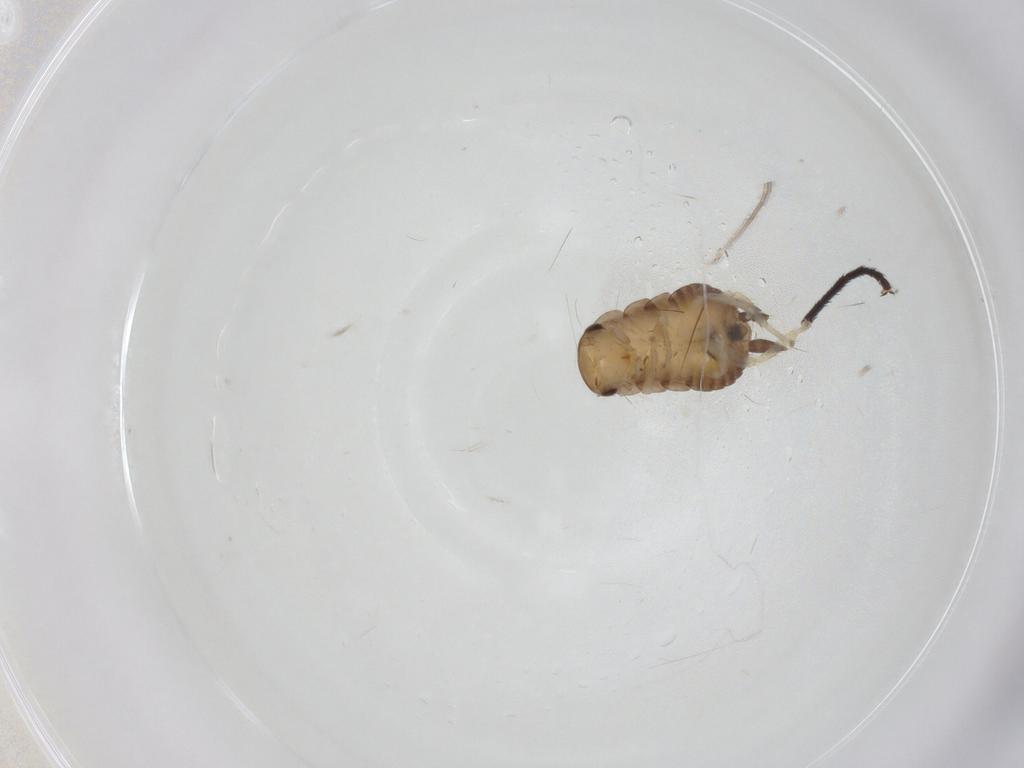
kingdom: Animalia
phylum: Arthropoda
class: Insecta
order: Blattodea
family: Ectobiidae
